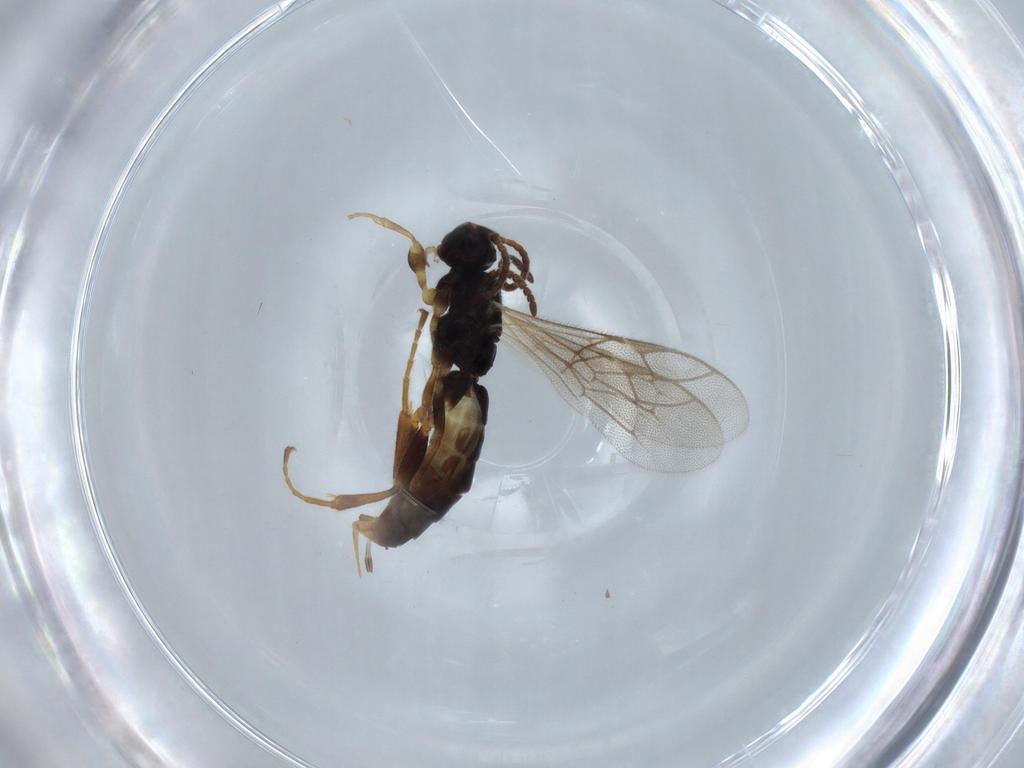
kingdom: Animalia
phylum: Arthropoda
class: Insecta
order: Hymenoptera
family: Ichneumonidae
